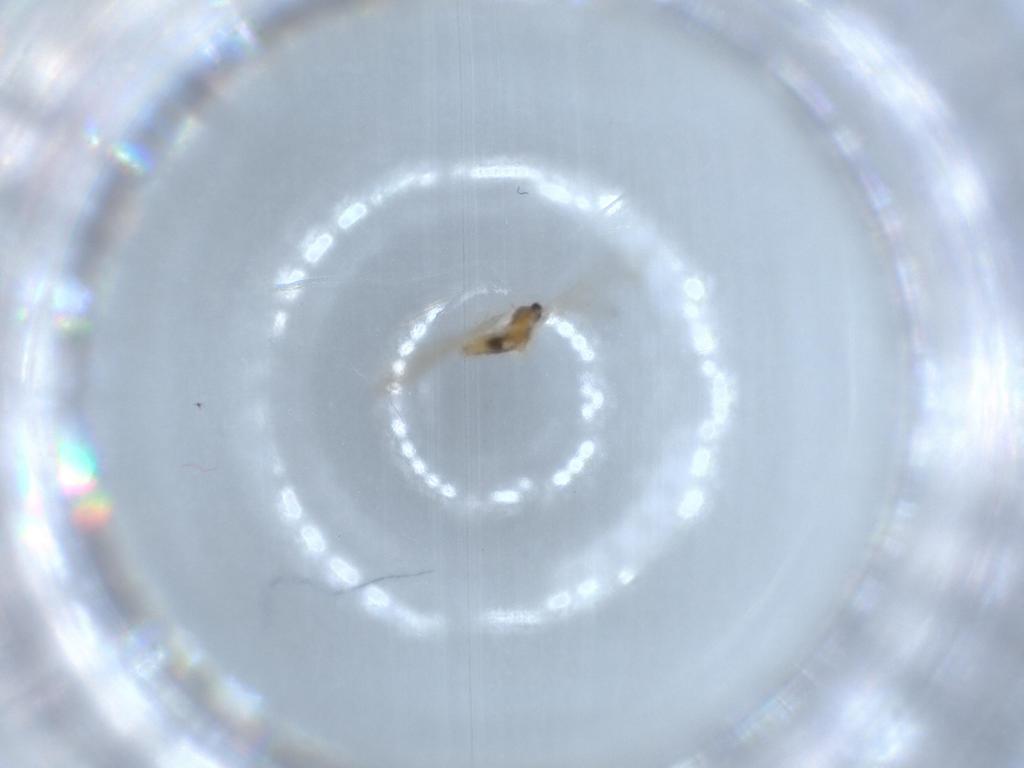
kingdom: Animalia
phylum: Arthropoda
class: Insecta
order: Diptera
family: Cecidomyiidae
